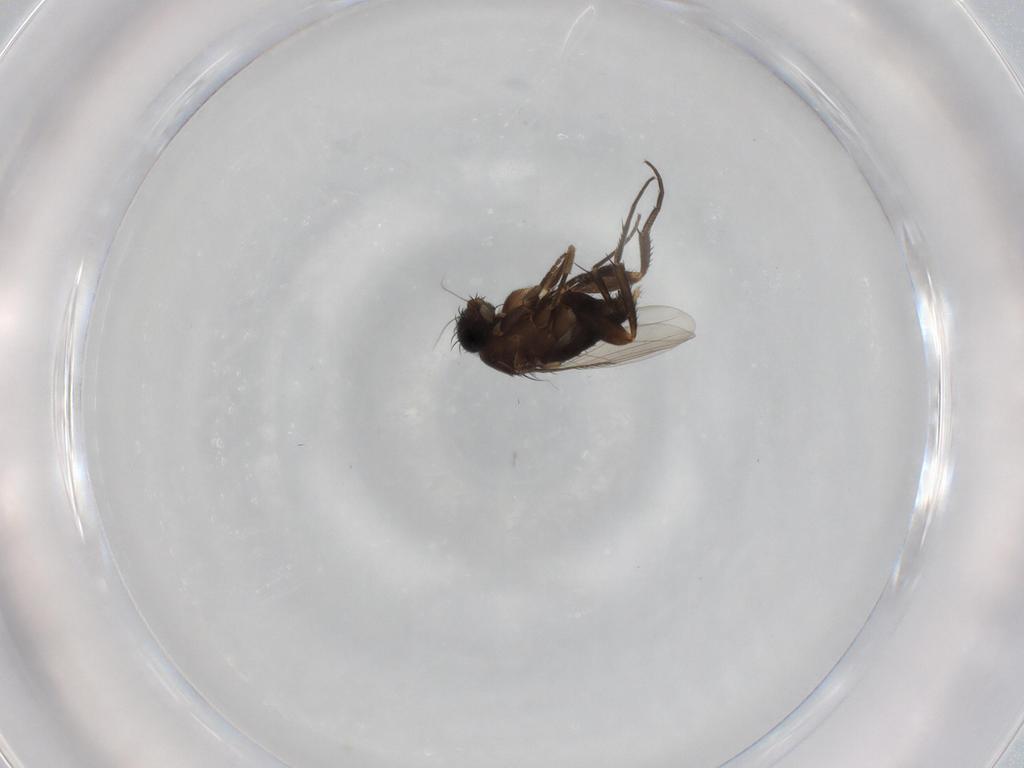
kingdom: Animalia
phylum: Arthropoda
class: Insecta
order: Diptera
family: Phoridae
